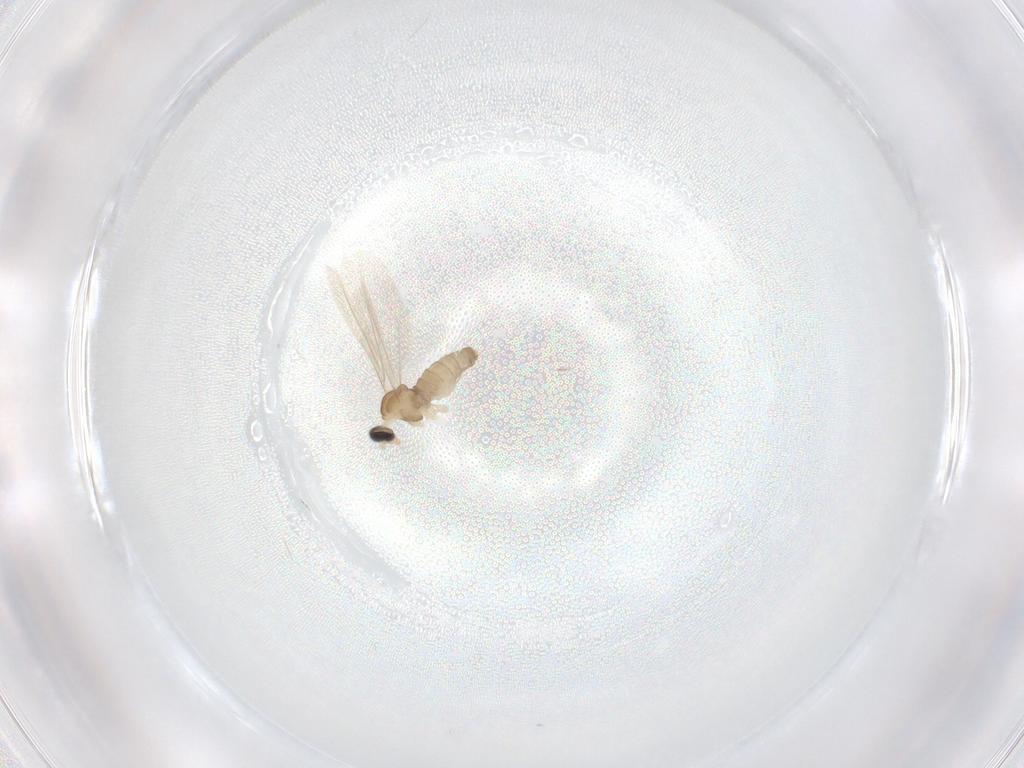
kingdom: Animalia
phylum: Arthropoda
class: Insecta
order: Diptera
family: Cecidomyiidae
